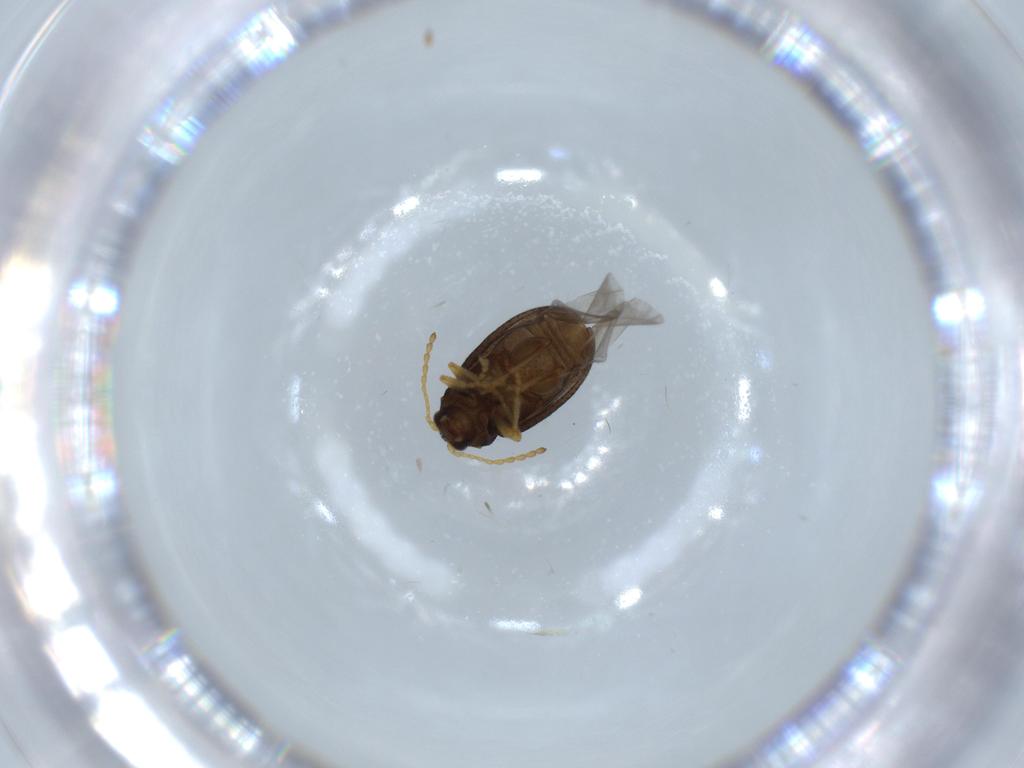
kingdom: Animalia
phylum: Arthropoda
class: Insecta
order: Coleoptera
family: Chrysomelidae
